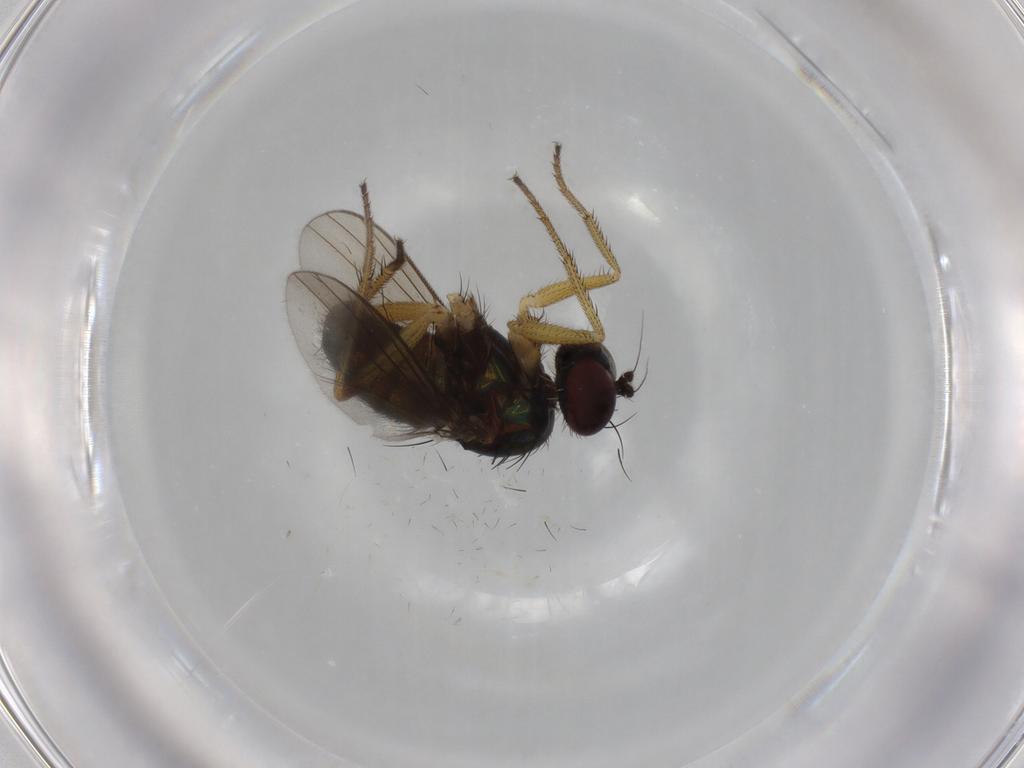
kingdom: Animalia
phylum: Arthropoda
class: Insecta
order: Diptera
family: Dolichopodidae
